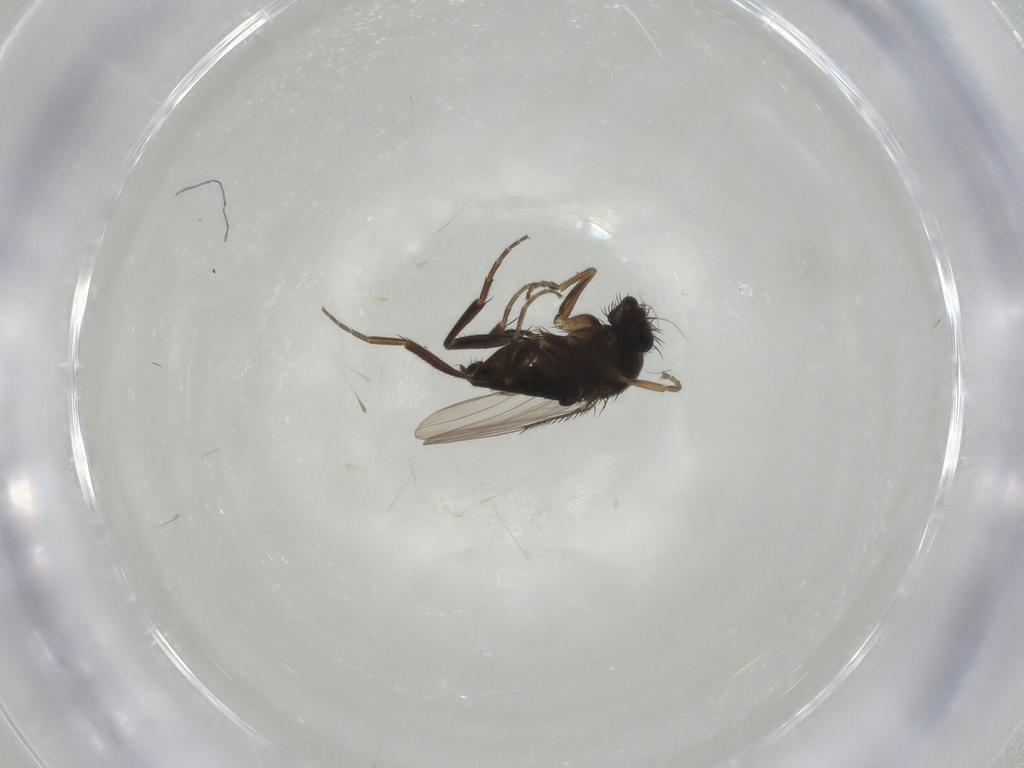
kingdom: Animalia
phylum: Arthropoda
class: Insecta
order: Diptera
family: Phoridae
